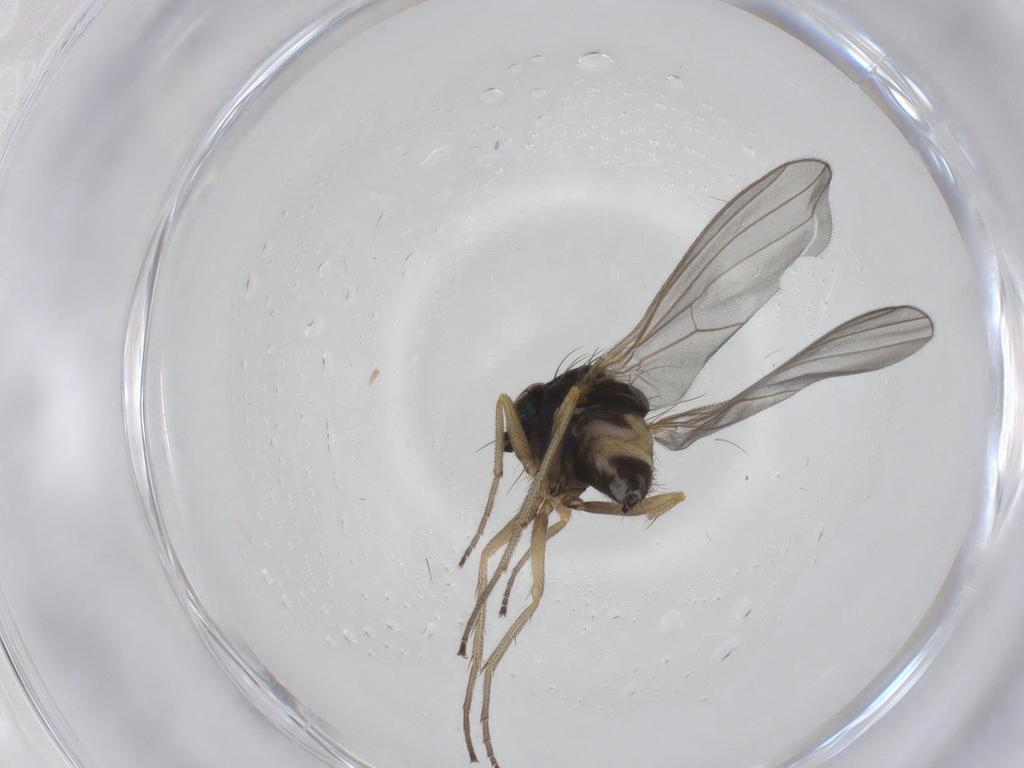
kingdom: Animalia
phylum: Arthropoda
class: Insecta
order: Diptera
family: Dolichopodidae
